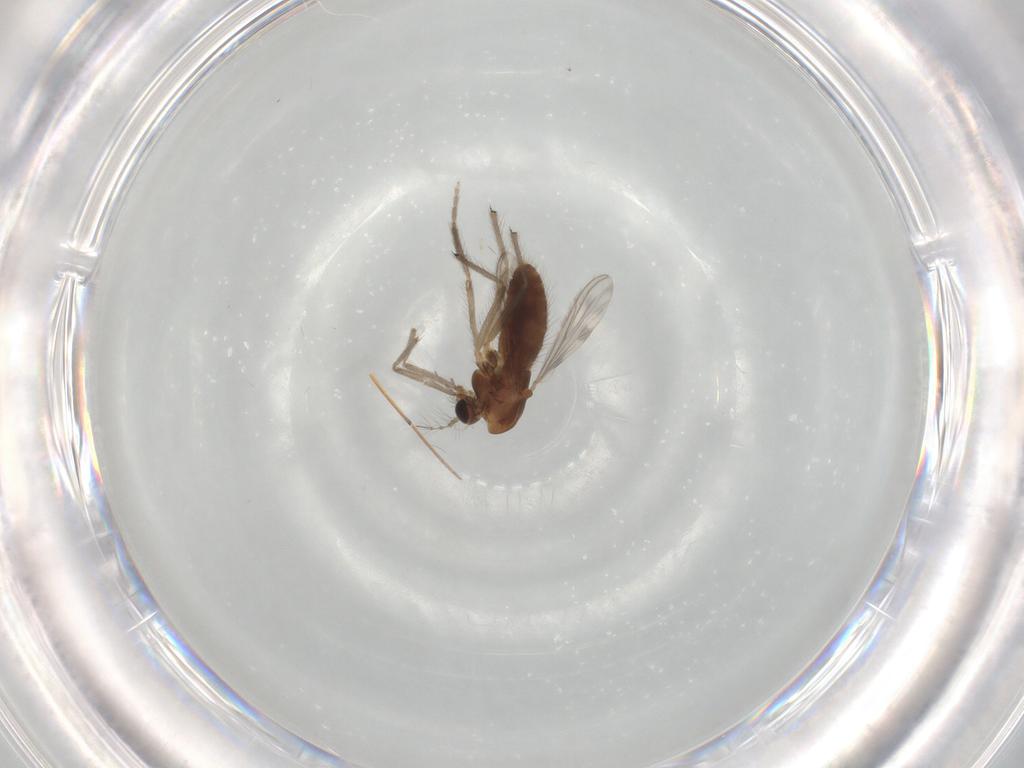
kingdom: Animalia
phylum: Arthropoda
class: Insecta
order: Diptera
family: Chironomidae
